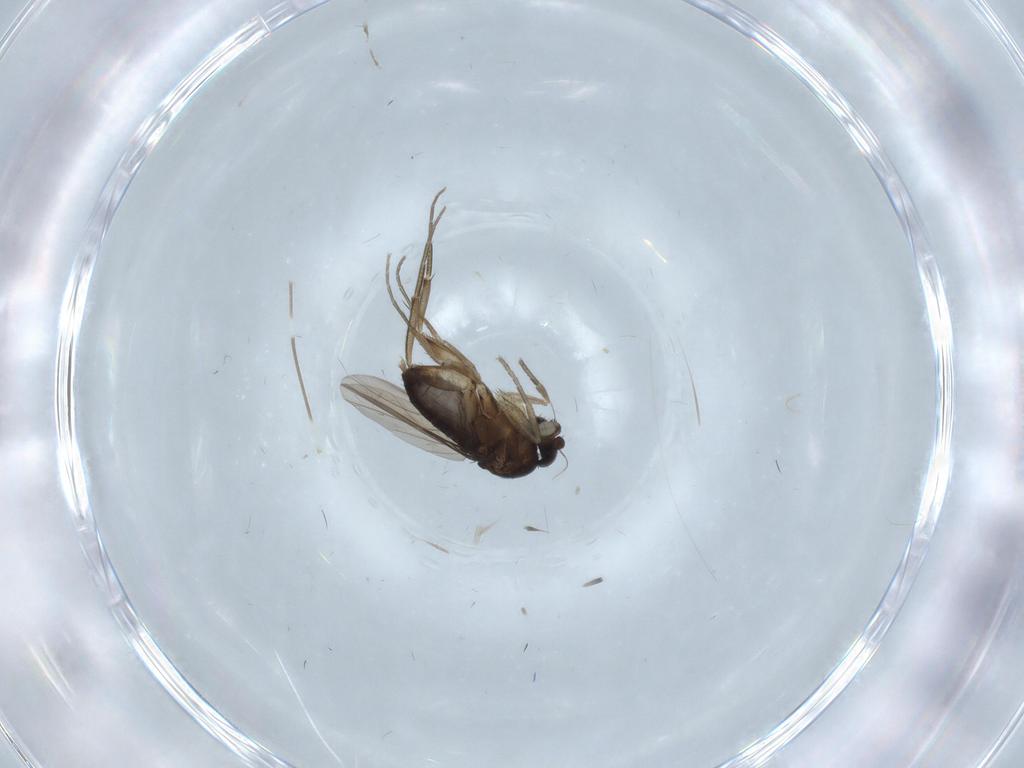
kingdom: Animalia
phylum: Arthropoda
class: Insecta
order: Diptera
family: Phoridae
